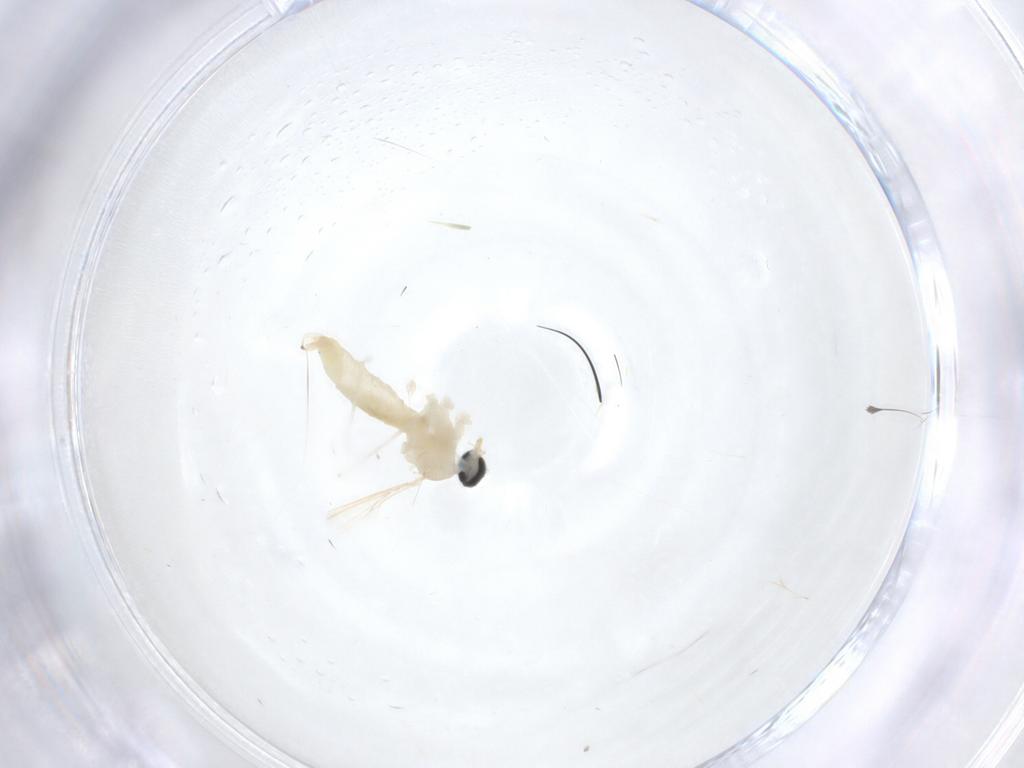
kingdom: Animalia
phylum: Arthropoda
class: Insecta
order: Diptera
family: Cecidomyiidae
